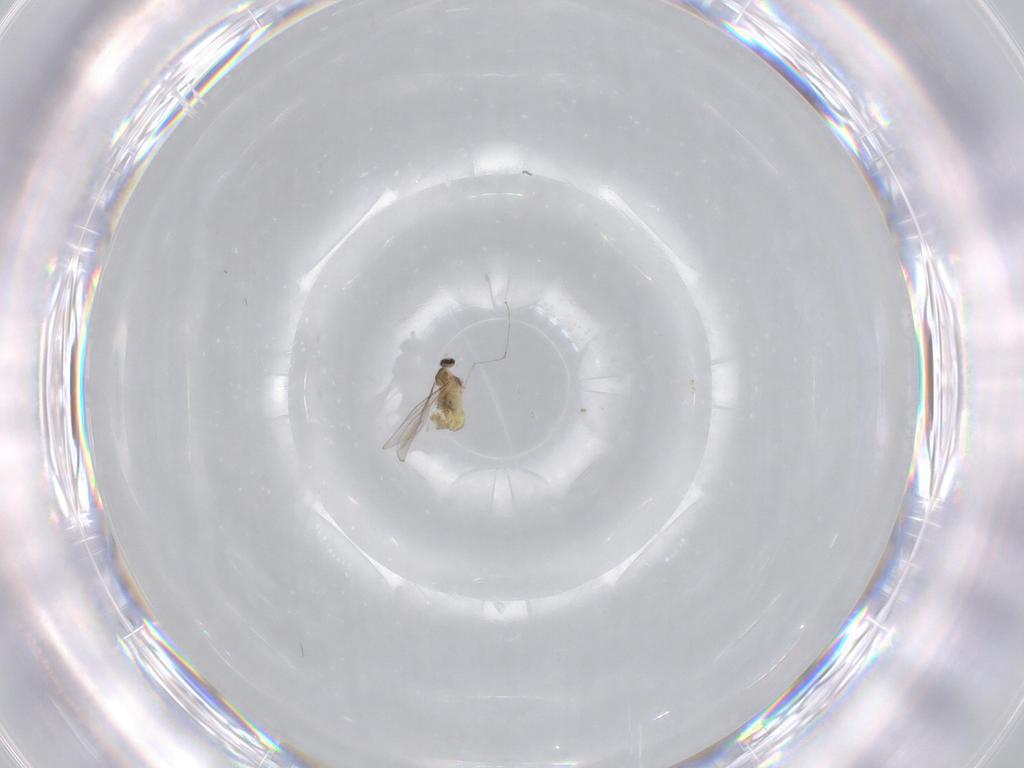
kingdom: Animalia
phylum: Arthropoda
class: Insecta
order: Diptera
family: Cecidomyiidae
